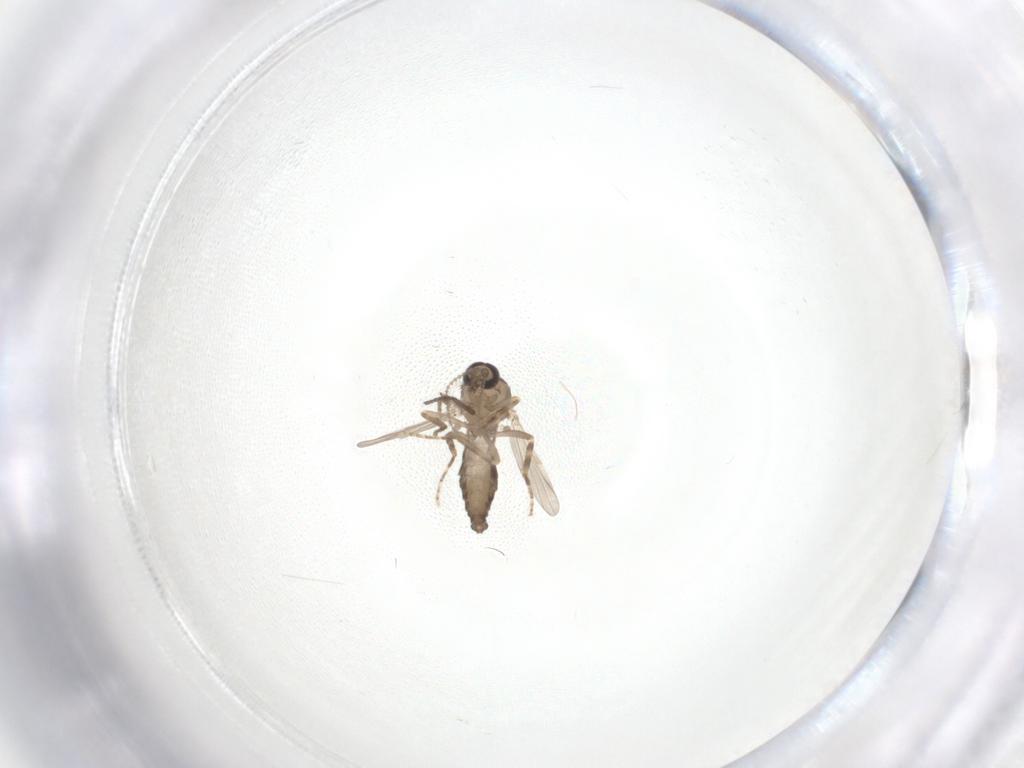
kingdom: Animalia
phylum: Arthropoda
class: Insecta
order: Diptera
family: Ceratopogonidae
